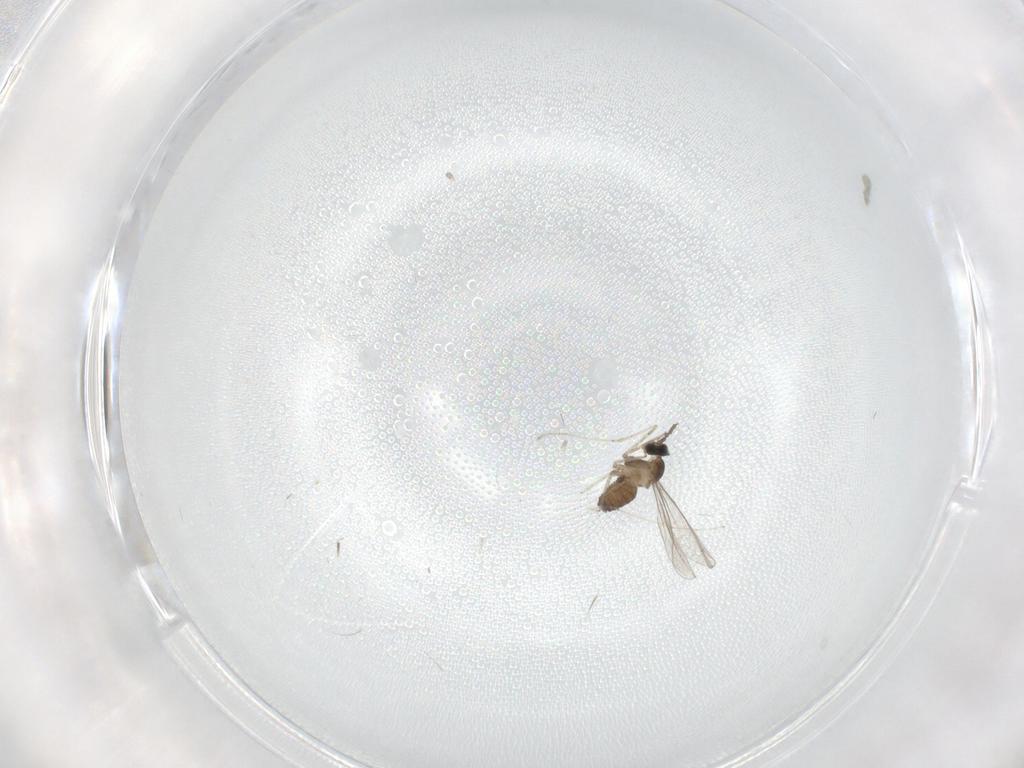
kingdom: Animalia
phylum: Arthropoda
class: Insecta
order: Diptera
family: Cecidomyiidae
